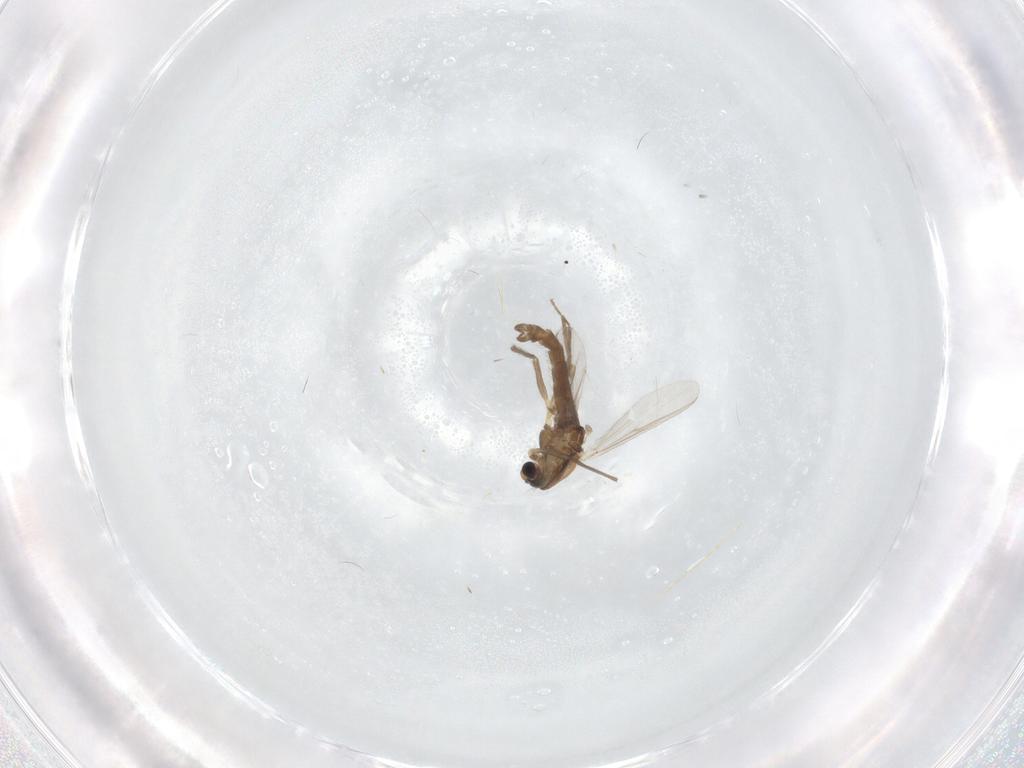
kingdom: Animalia
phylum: Arthropoda
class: Insecta
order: Diptera
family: Chironomidae
